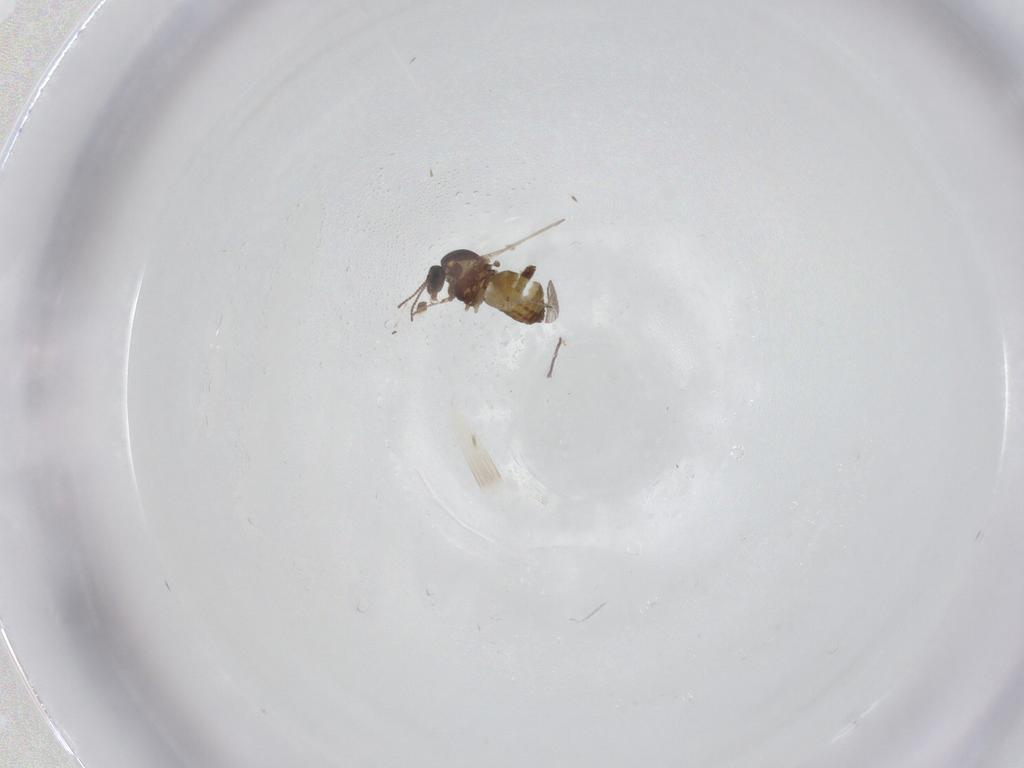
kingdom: Animalia
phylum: Arthropoda
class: Insecta
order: Diptera
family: Ceratopogonidae
